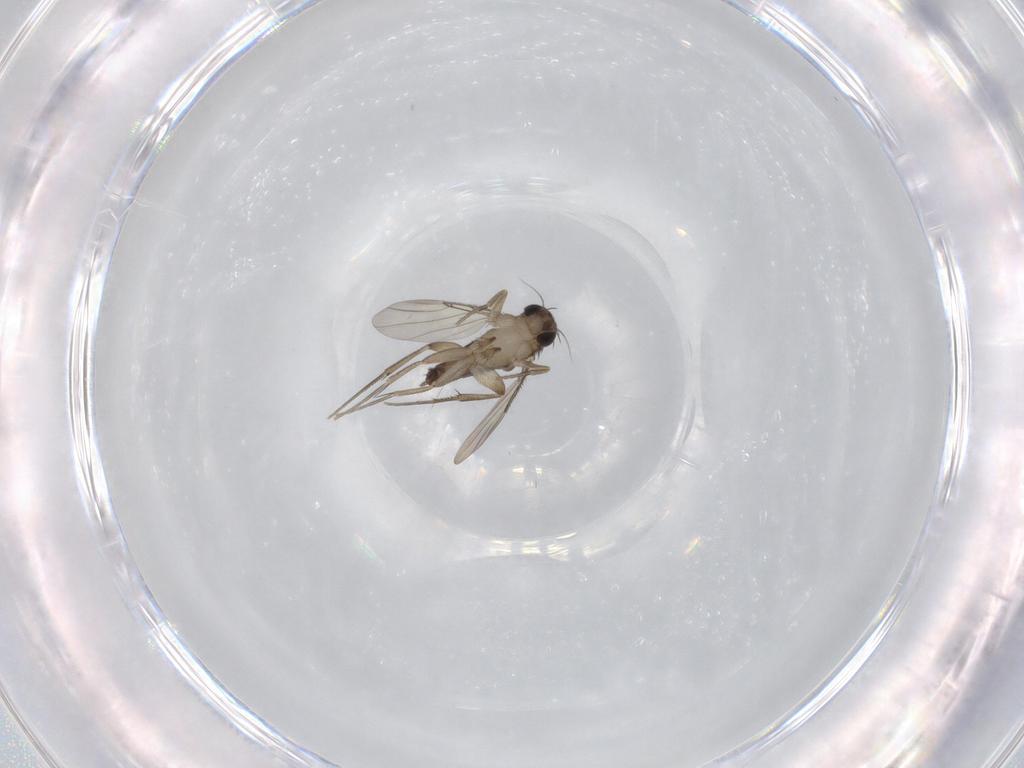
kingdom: Animalia
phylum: Arthropoda
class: Insecta
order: Diptera
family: Phoridae
